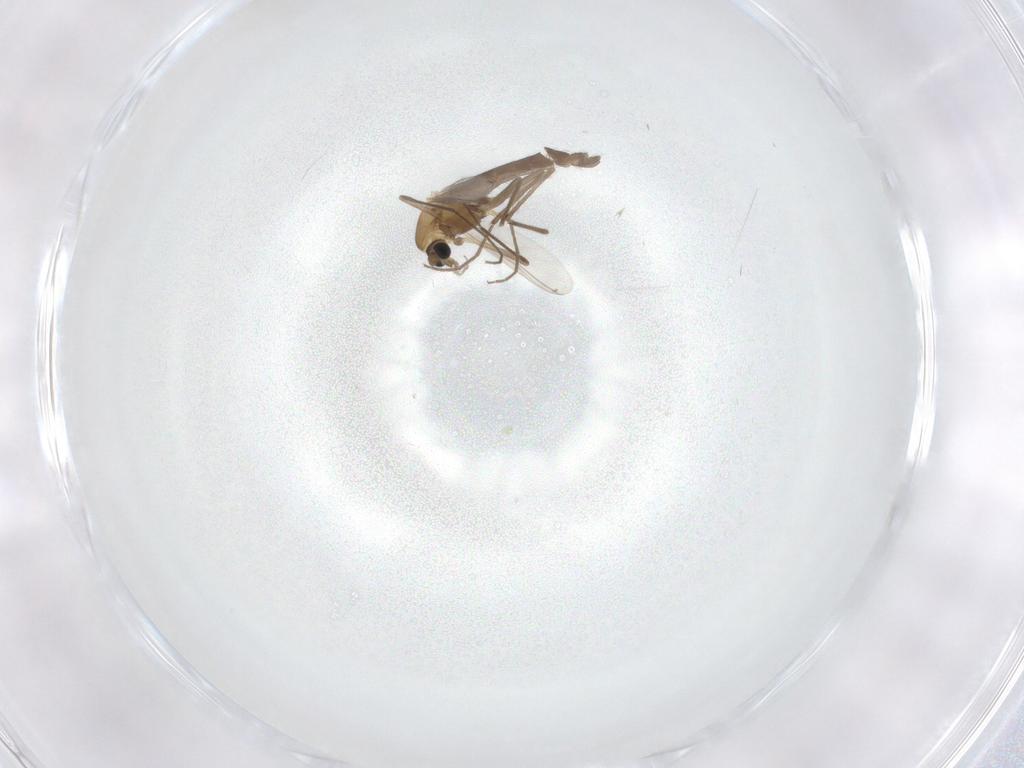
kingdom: Animalia
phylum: Arthropoda
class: Insecta
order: Diptera
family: Chironomidae
